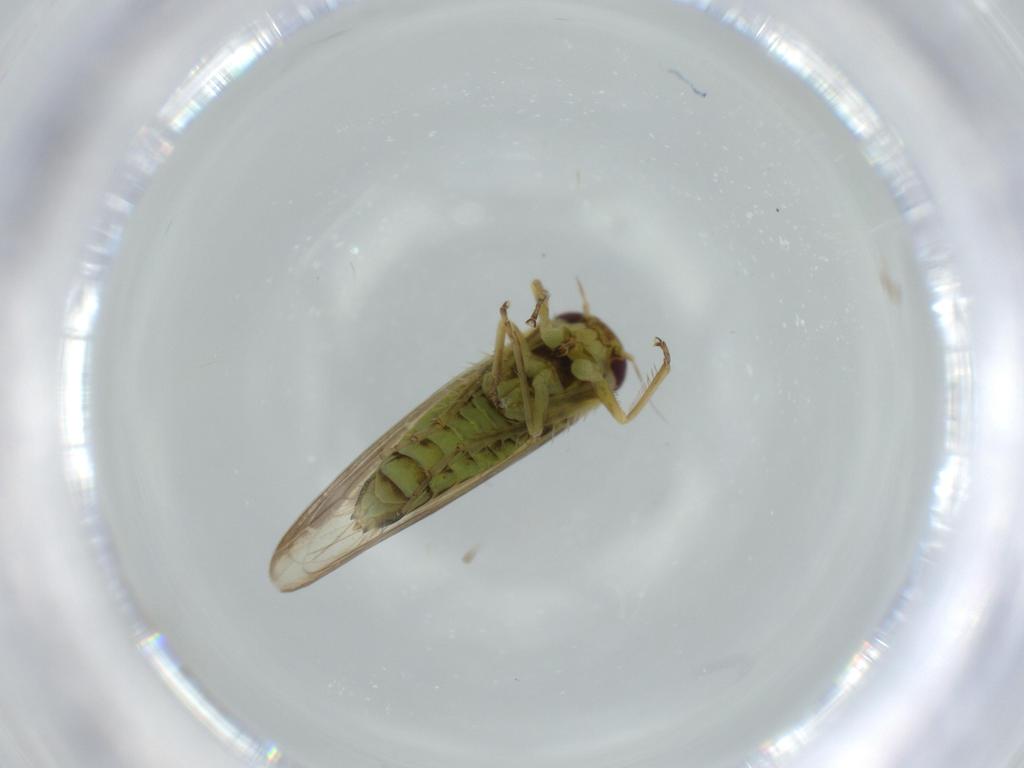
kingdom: Animalia
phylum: Arthropoda
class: Insecta
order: Hemiptera
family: Cicadellidae
